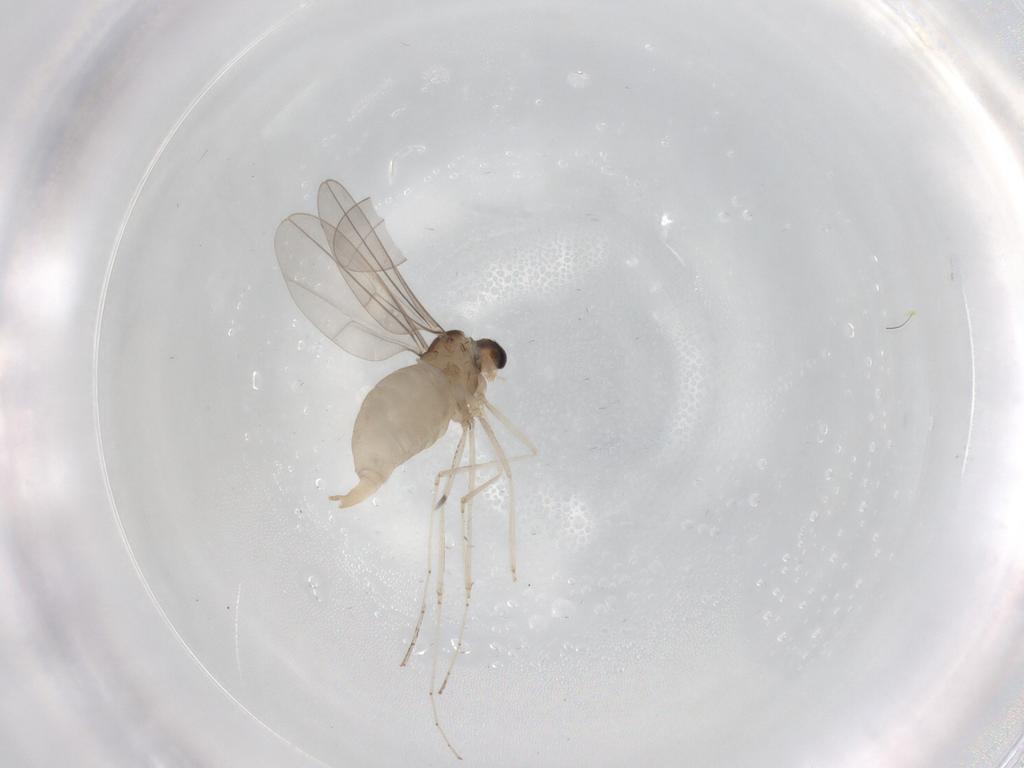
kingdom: Animalia
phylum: Arthropoda
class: Insecta
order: Diptera
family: Cecidomyiidae
